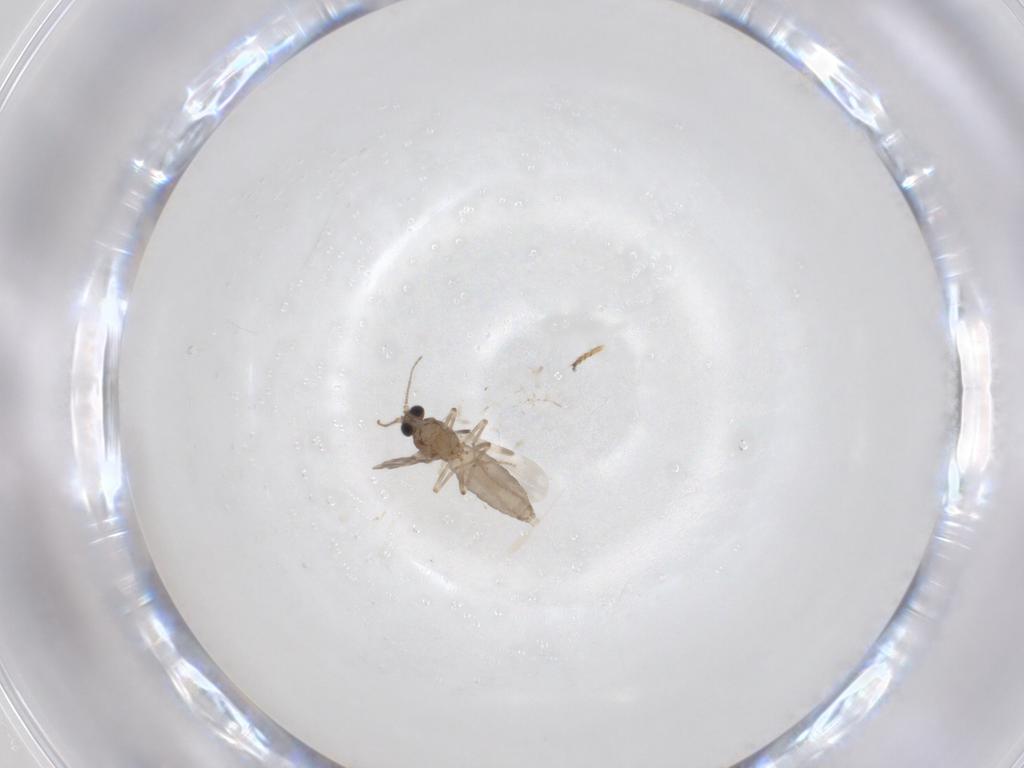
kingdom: Animalia
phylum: Arthropoda
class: Insecta
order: Diptera
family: Ceratopogonidae
